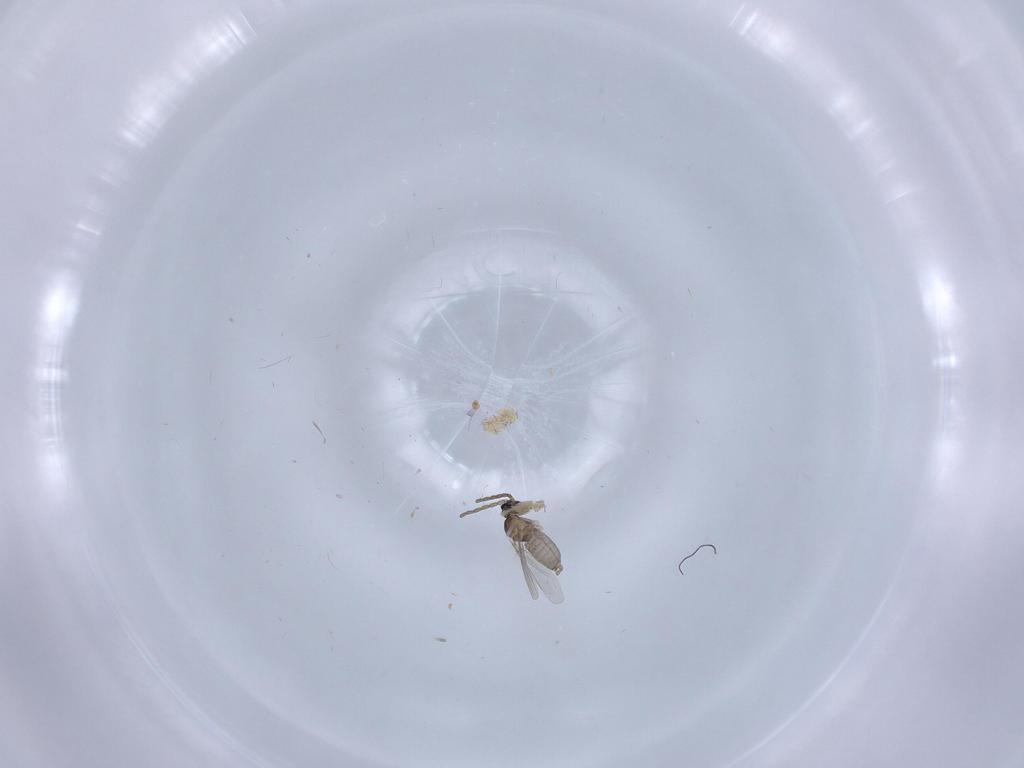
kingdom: Animalia
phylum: Arthropoda
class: Insecta
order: Diptera
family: Cecidomyiidae
